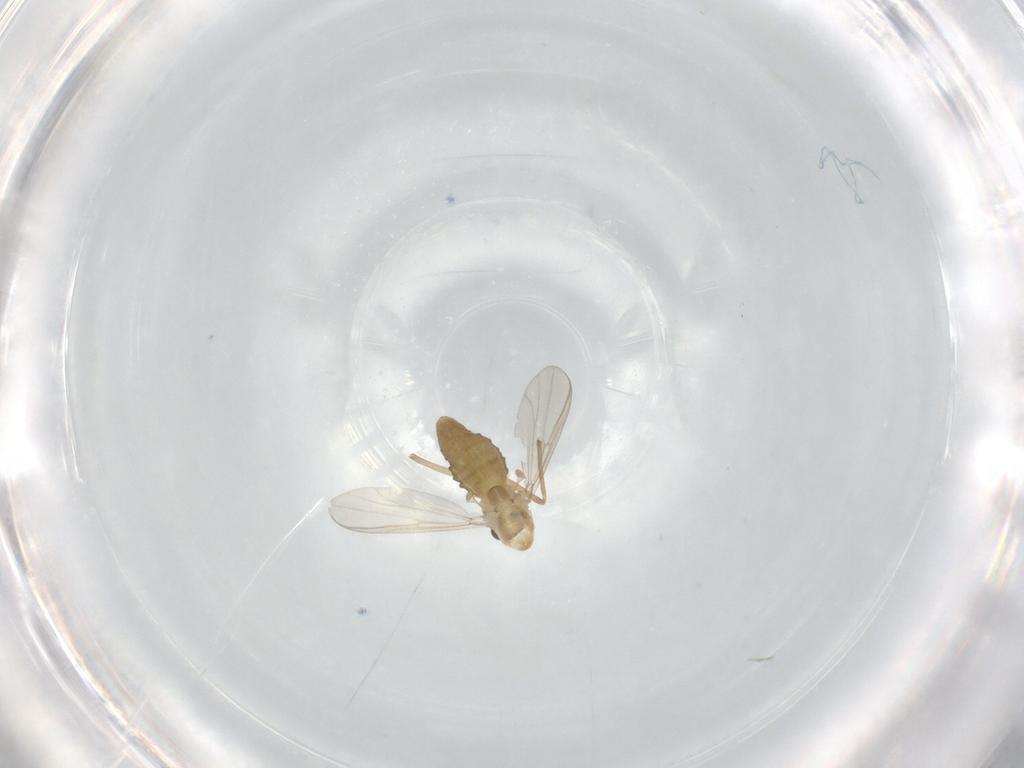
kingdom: Animalia
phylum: Arthropoda
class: Insecta
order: Diptera
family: Chironomidae
